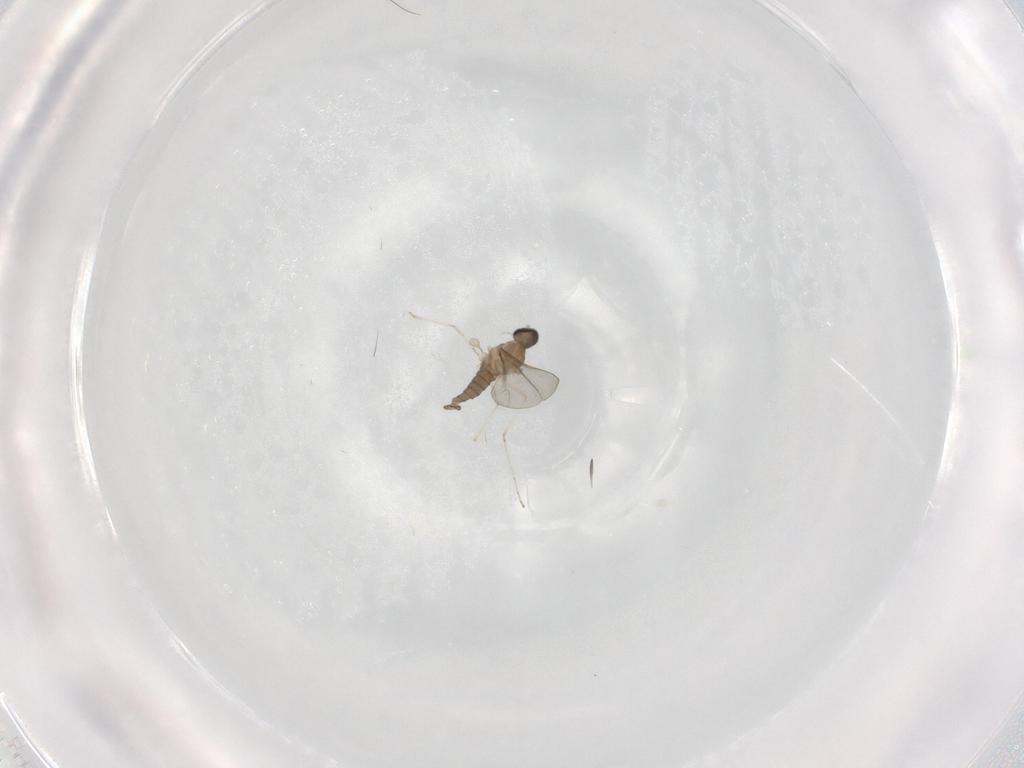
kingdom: Animalia
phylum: Arthropoda
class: Insecta
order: Diptera
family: Cecidomyiidae
